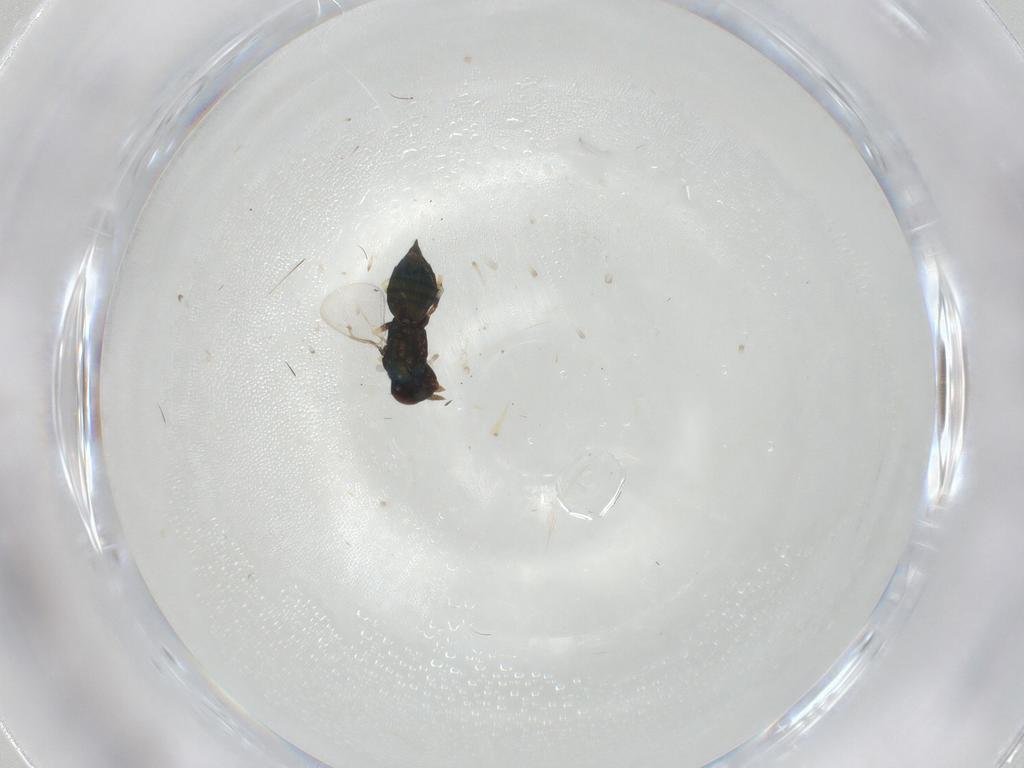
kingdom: Animalia
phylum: Arthropoda
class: Insecta
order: Hymenoptera
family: Eulophidae
